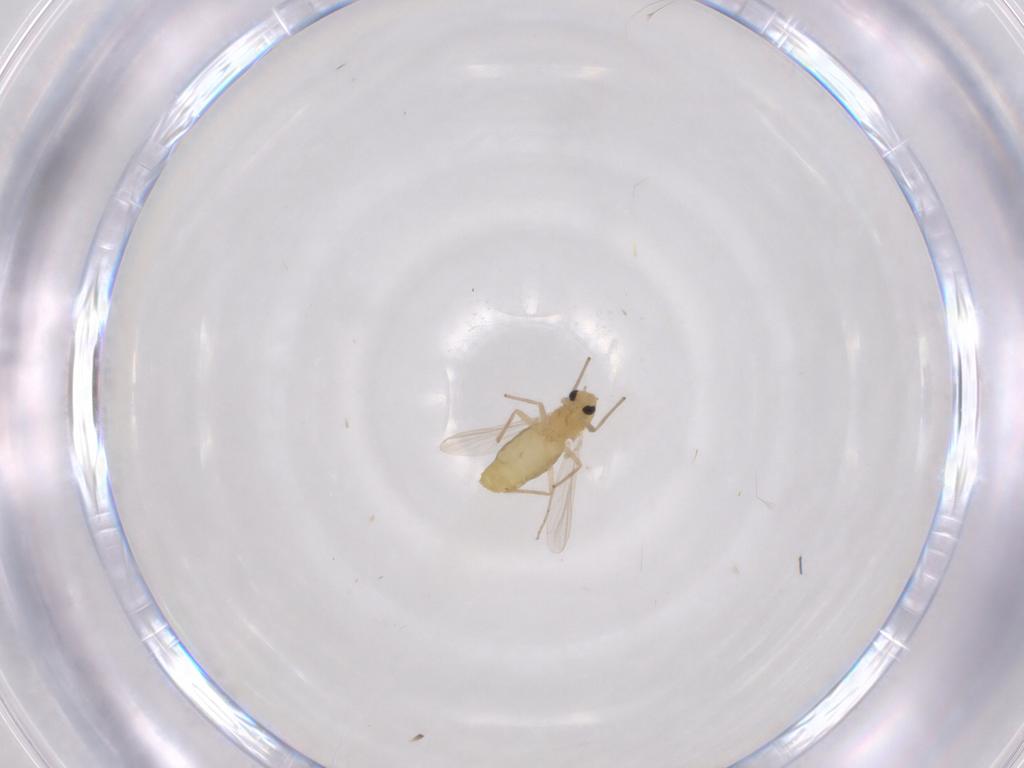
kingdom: Animalia
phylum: Arthropoda
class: Insecta
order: Diptera
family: Chironomidae
